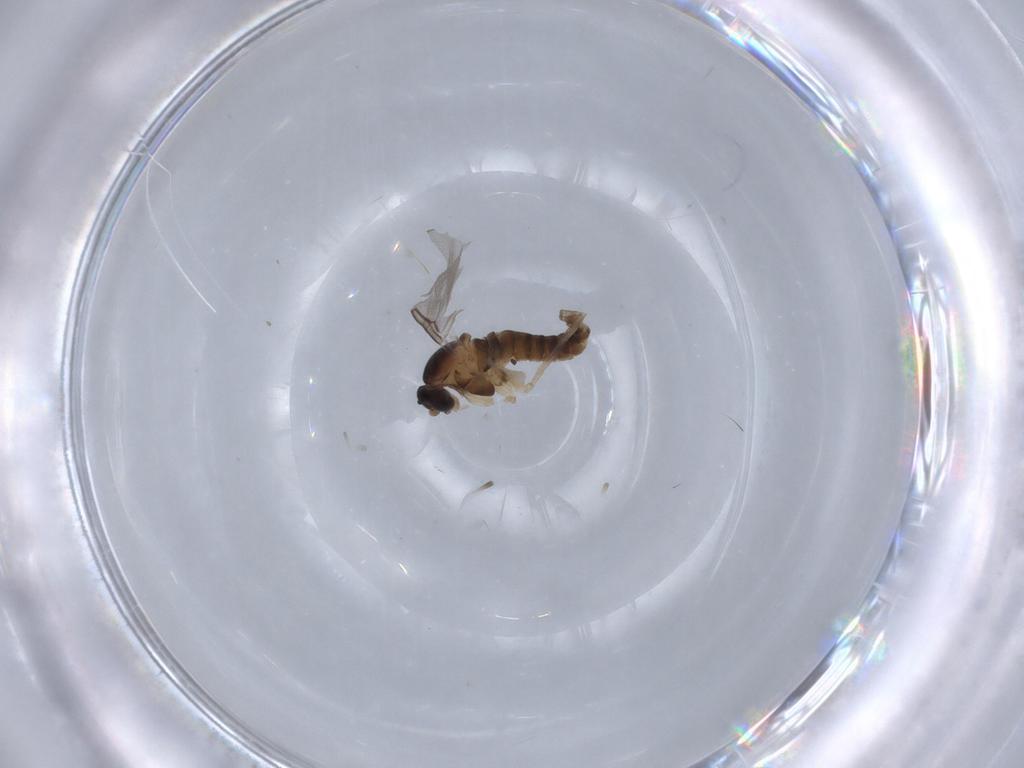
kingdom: Animalia
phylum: Arthropoda
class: Insecta
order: Diptera
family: Cecidomyiidae
